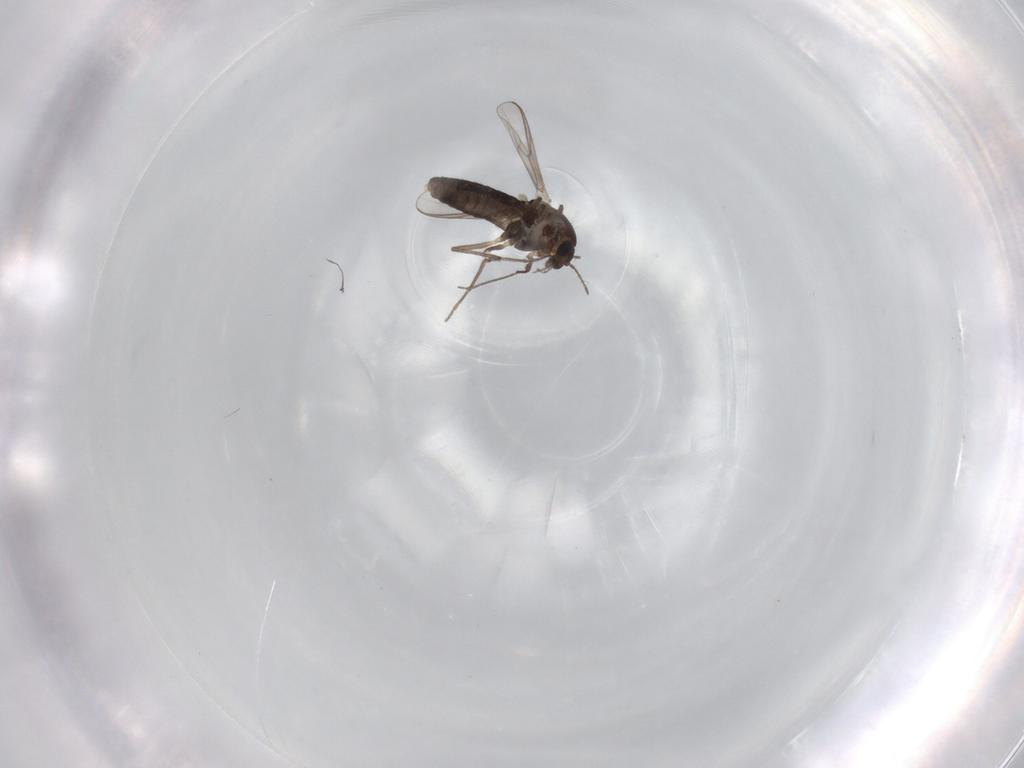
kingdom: Animalia
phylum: Arthropoda
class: Insecta
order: Diptera
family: Chironomidae
